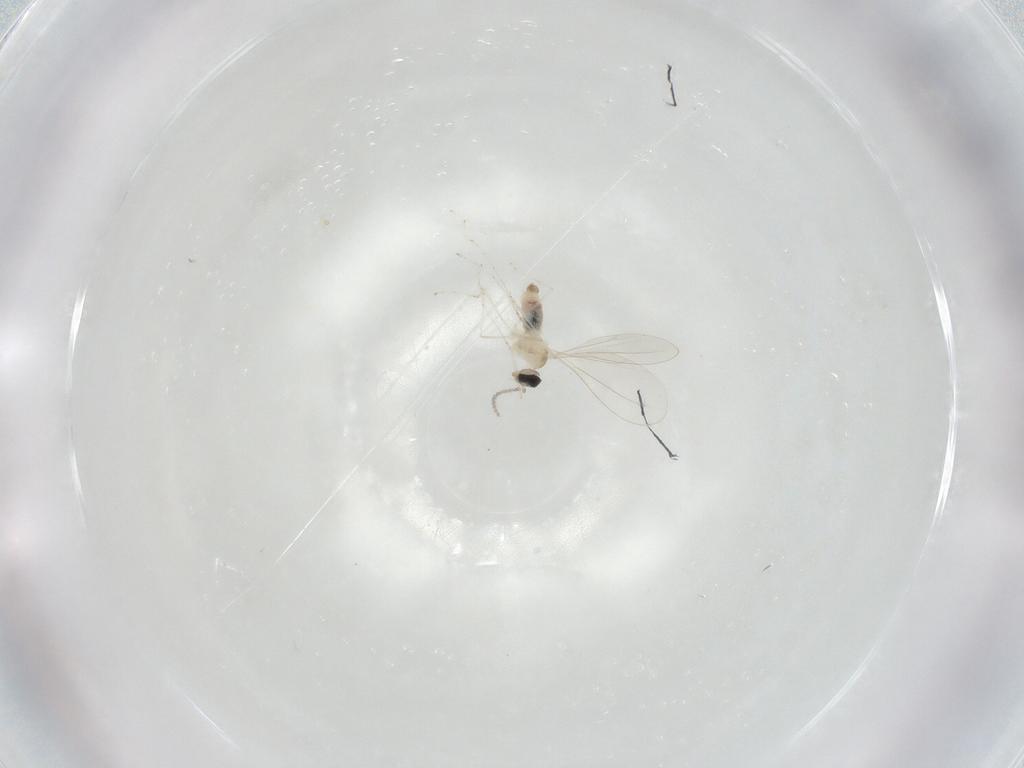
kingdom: Animalia
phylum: Arthropoda
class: Insecta
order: Diptera
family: Cecidomyiidae
